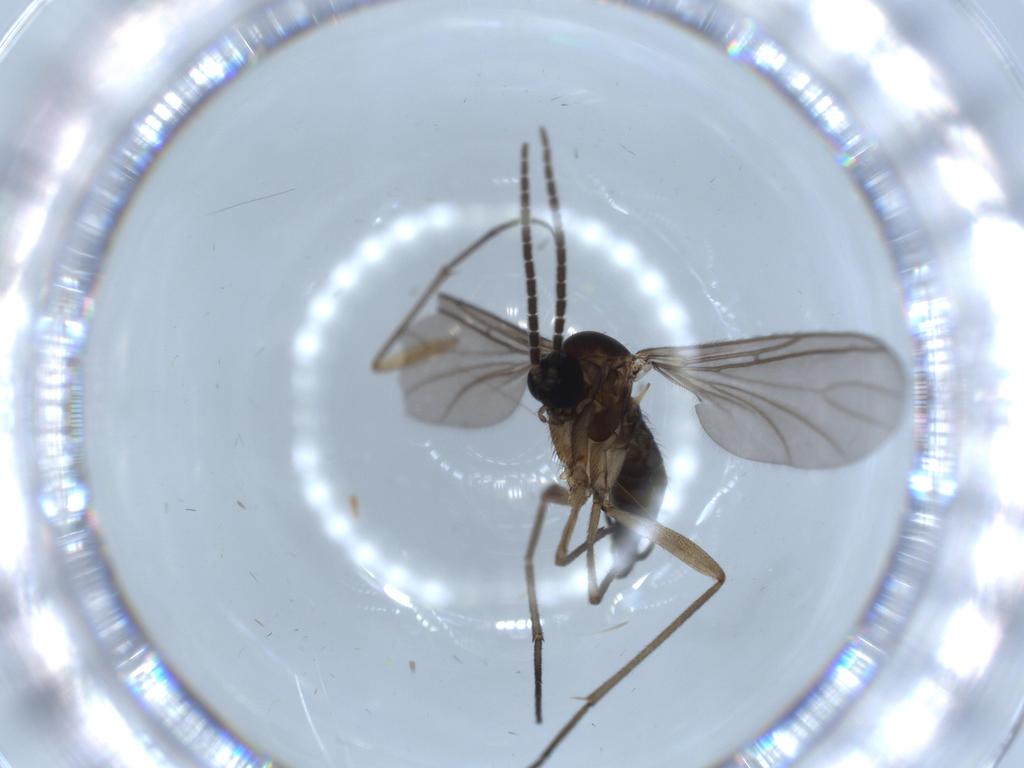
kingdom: Animalia
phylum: Arthropoda
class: Insecta
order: Diptera
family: Sciaridae
